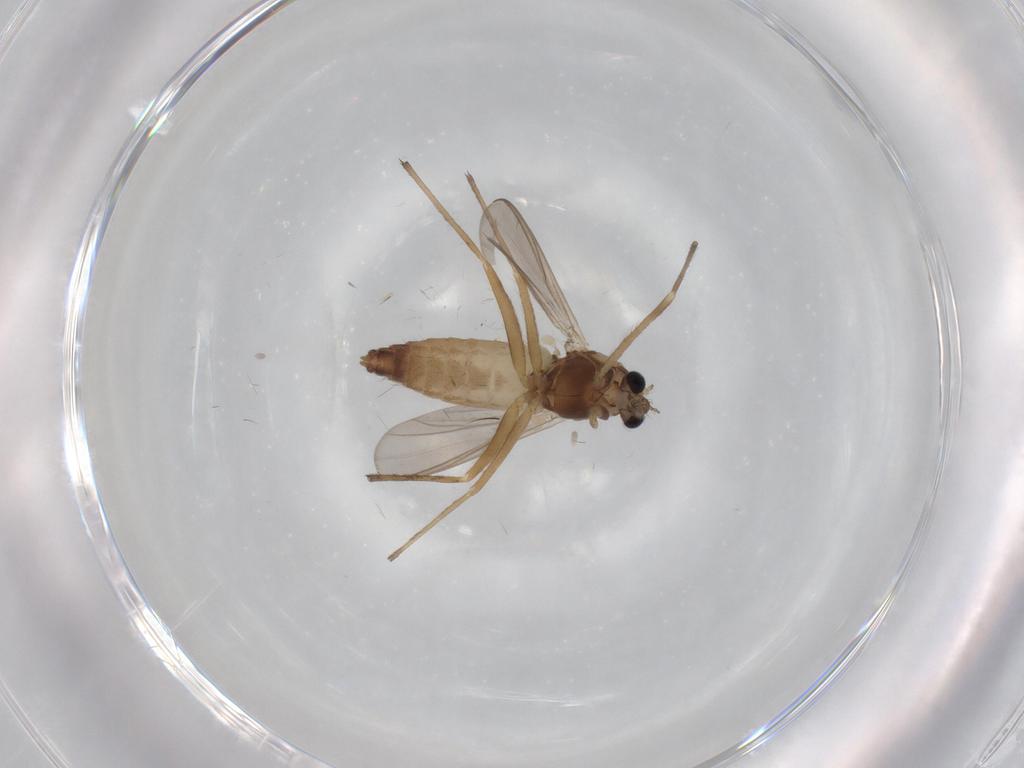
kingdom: Animalia
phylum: Arthropoda
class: Insecta
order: Diptera
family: Chironomidae
